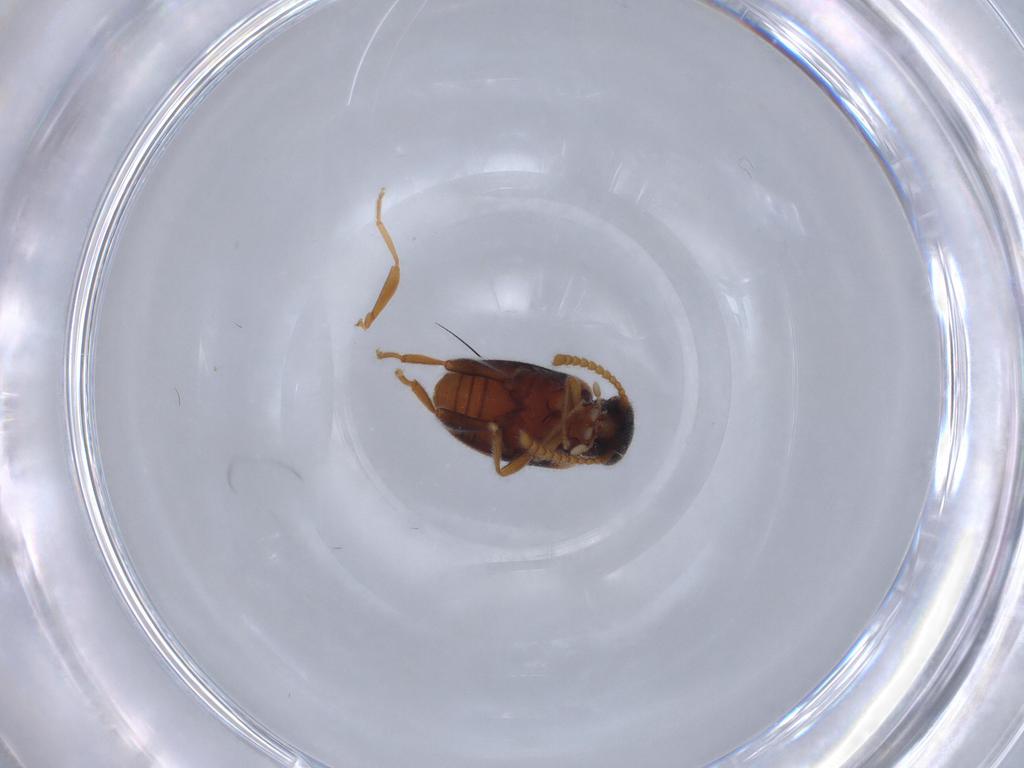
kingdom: Animalia
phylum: Arthropoda
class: Insecta
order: Coleoptera
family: Aderidae
